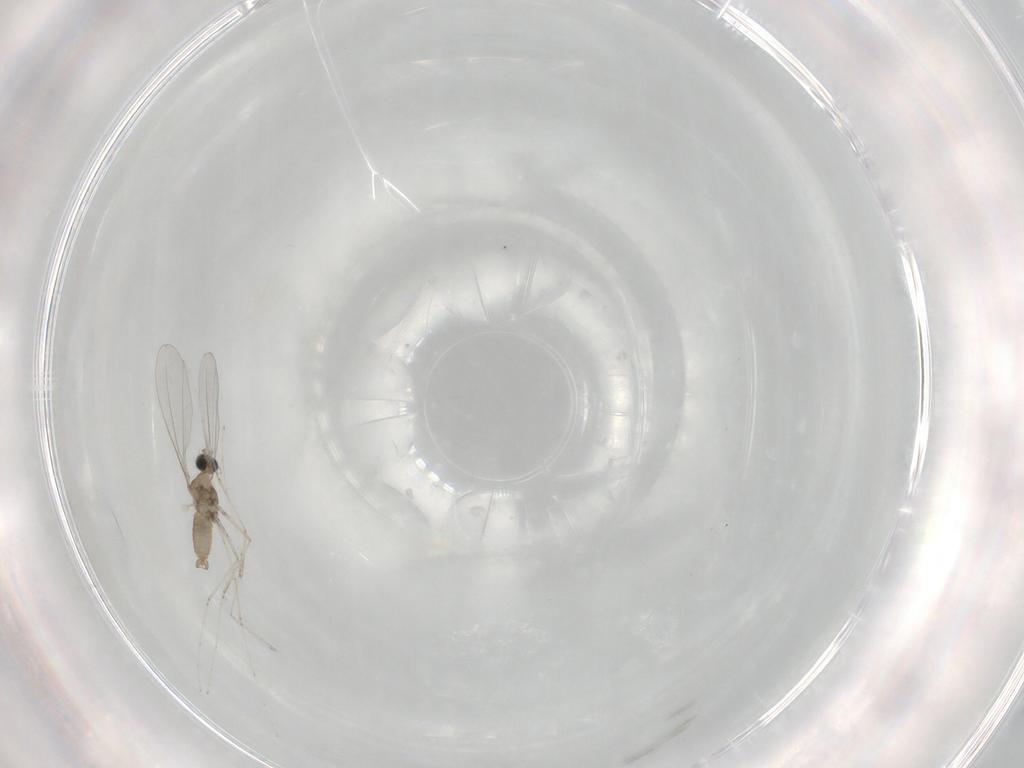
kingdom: Animalia
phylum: Arthropoda
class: Insecta
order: Diptera
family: Cecidomyiidae
